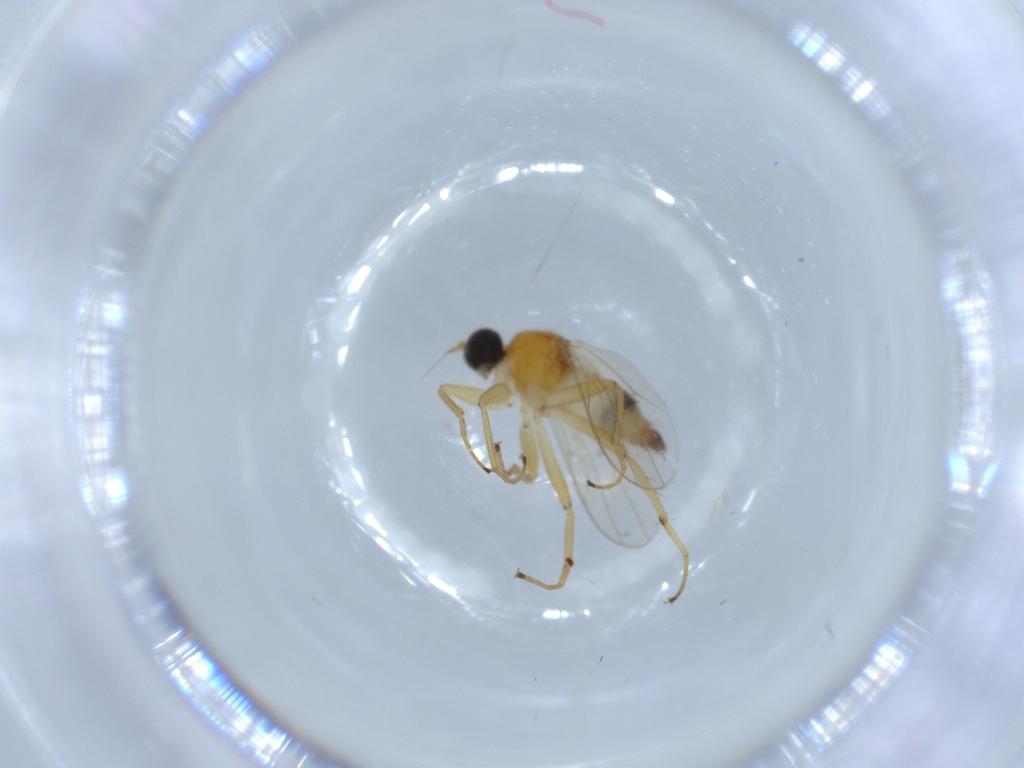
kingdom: Animalia
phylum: Arthropoda
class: Insecta
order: Diptera
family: Hybotidae
